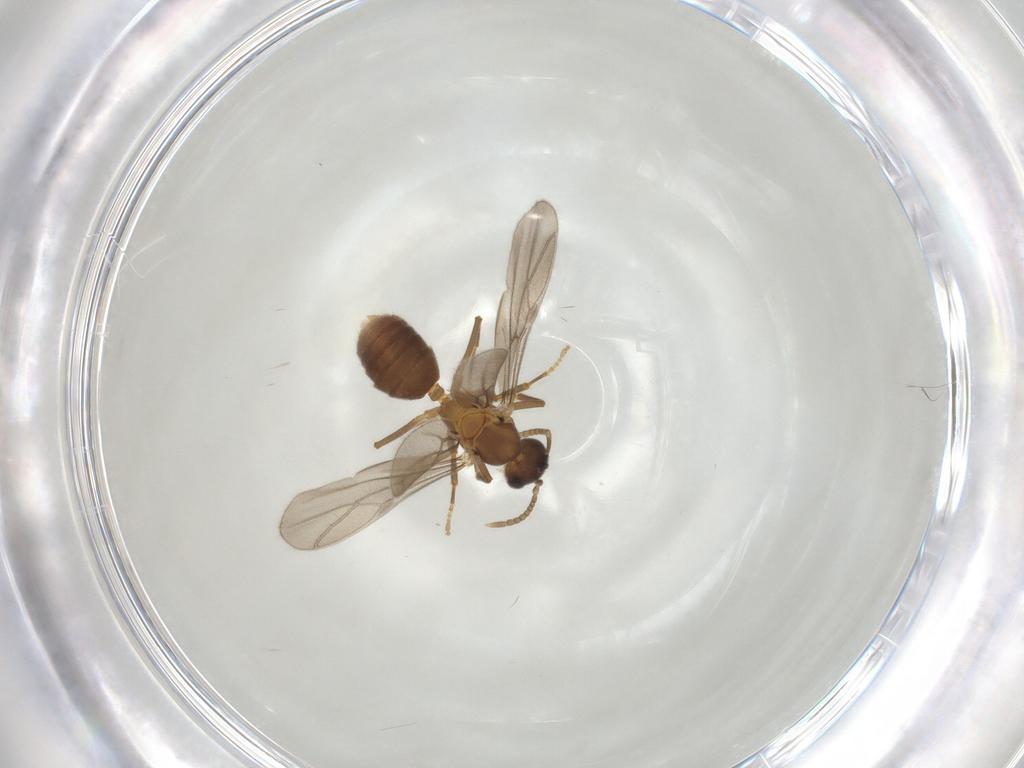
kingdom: Animalia
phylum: Arthropoda
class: Insecta
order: Hymenoptera
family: Formicidae
